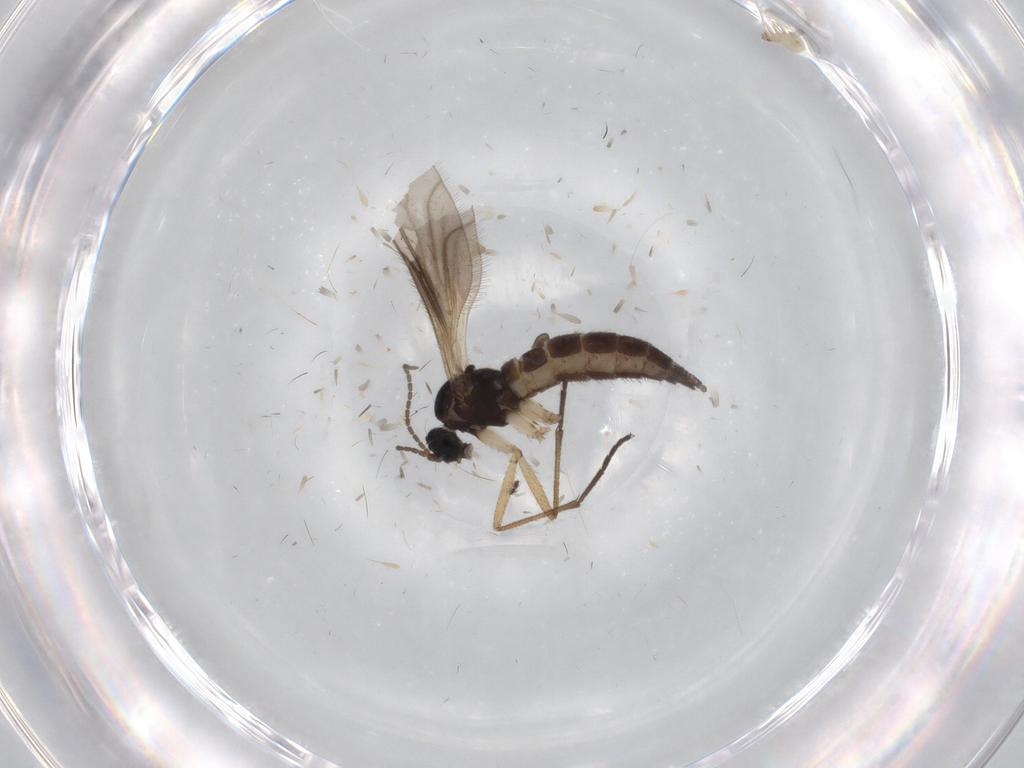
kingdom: Animalia
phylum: Arthropoda
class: Insecta
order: Diptera
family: Sciaridae
